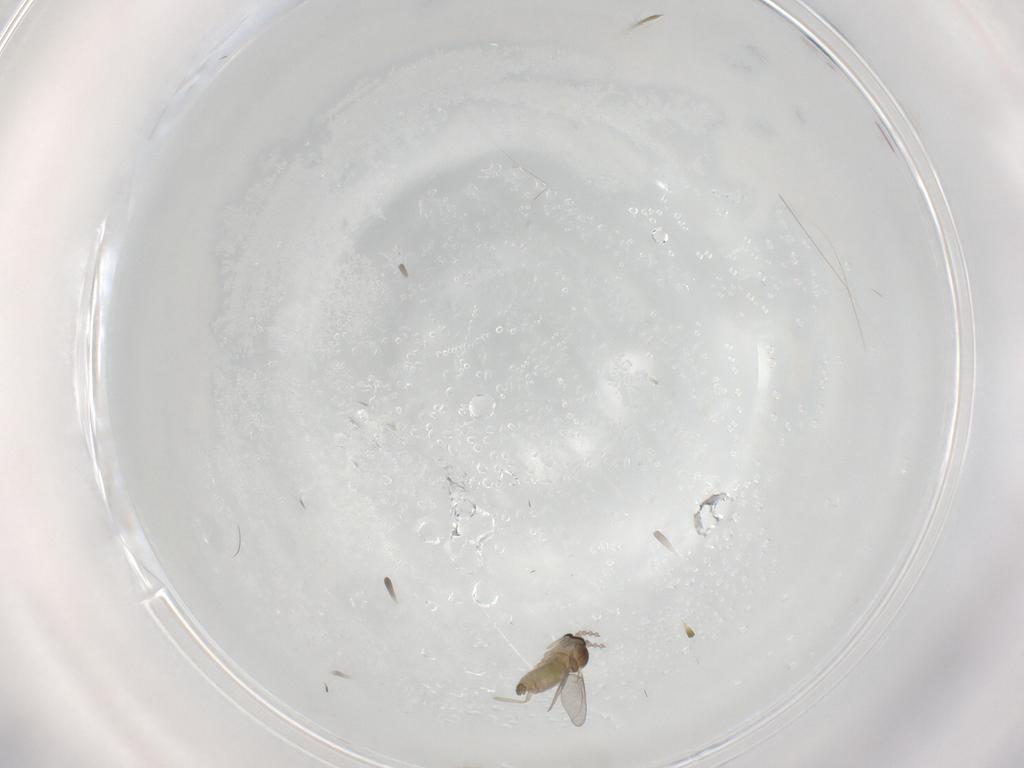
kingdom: Animalia
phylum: Arthropoda
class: Insecta
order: Diptera
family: Cecidomyiidae
